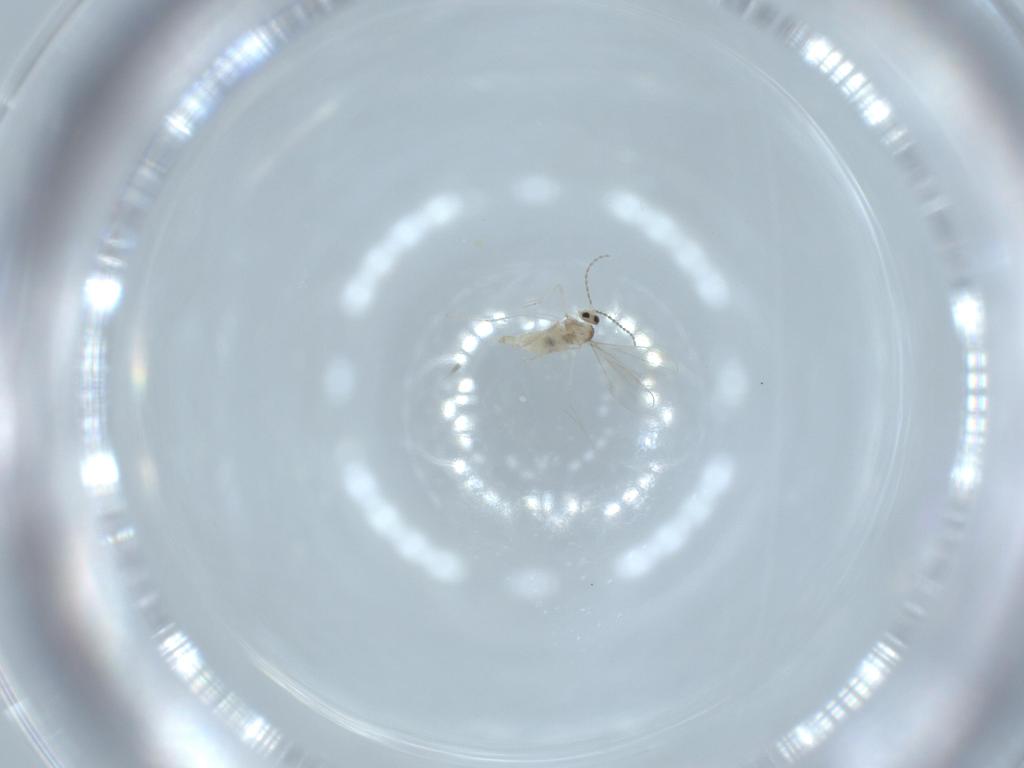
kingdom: Animalia
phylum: Arthropoda
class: Insecta
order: Diptera
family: Cecidomyiidae
